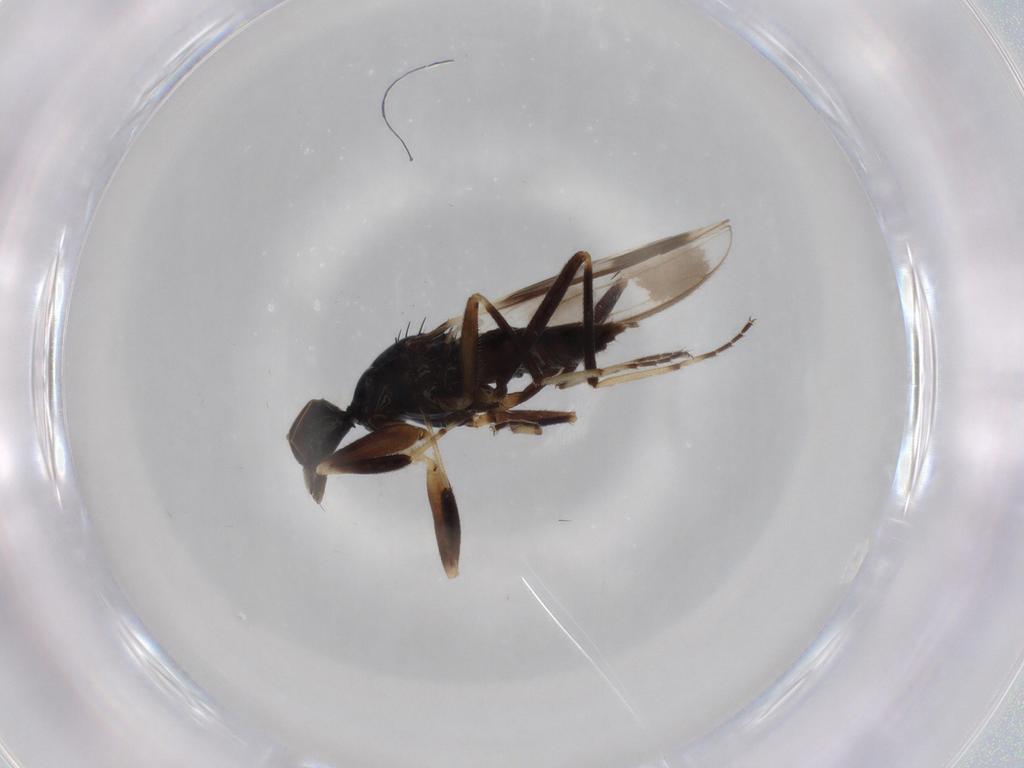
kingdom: Animalia
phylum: Arthropoda
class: Insecta
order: Diptera
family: Hybotidae
